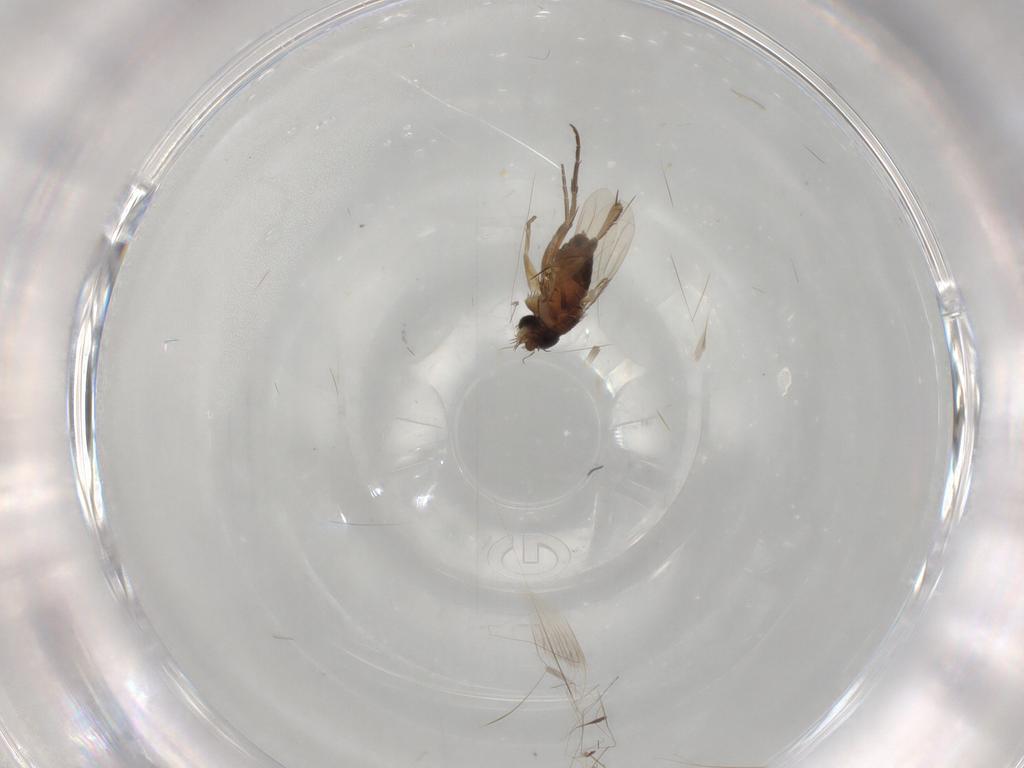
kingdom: Animalia
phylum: Arthropoda
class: Insecta
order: Diptera
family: Phoridae
